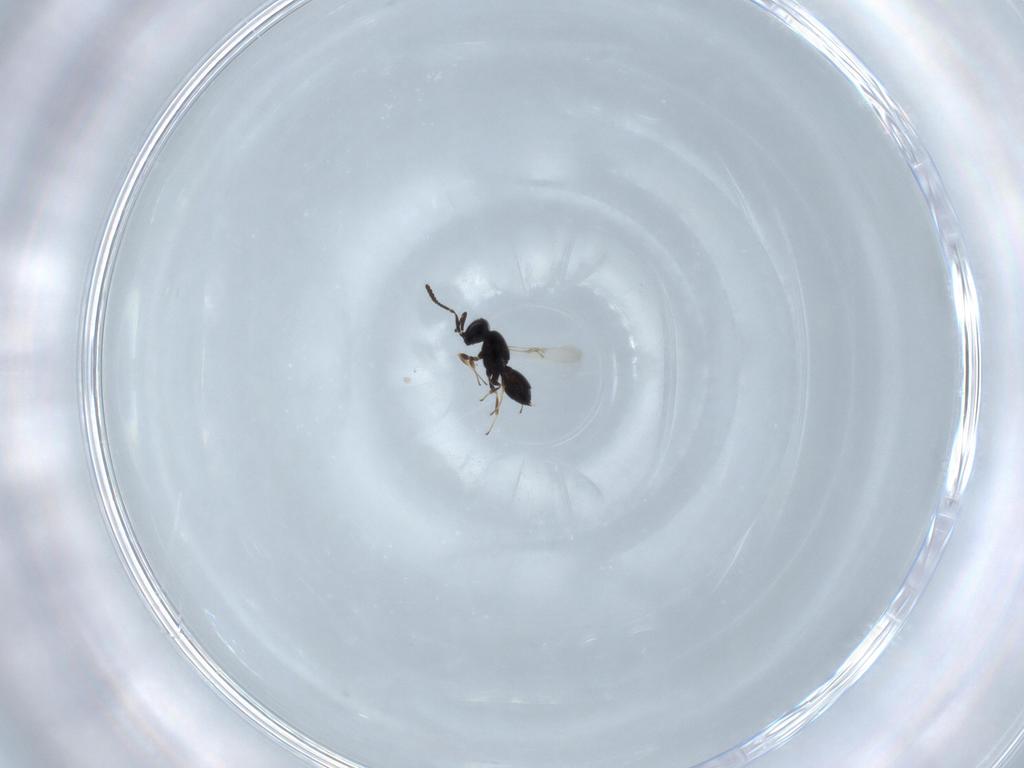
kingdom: Animalia
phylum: Arthropoda
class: Insecta
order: Hymenoptera
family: Scelionidae
